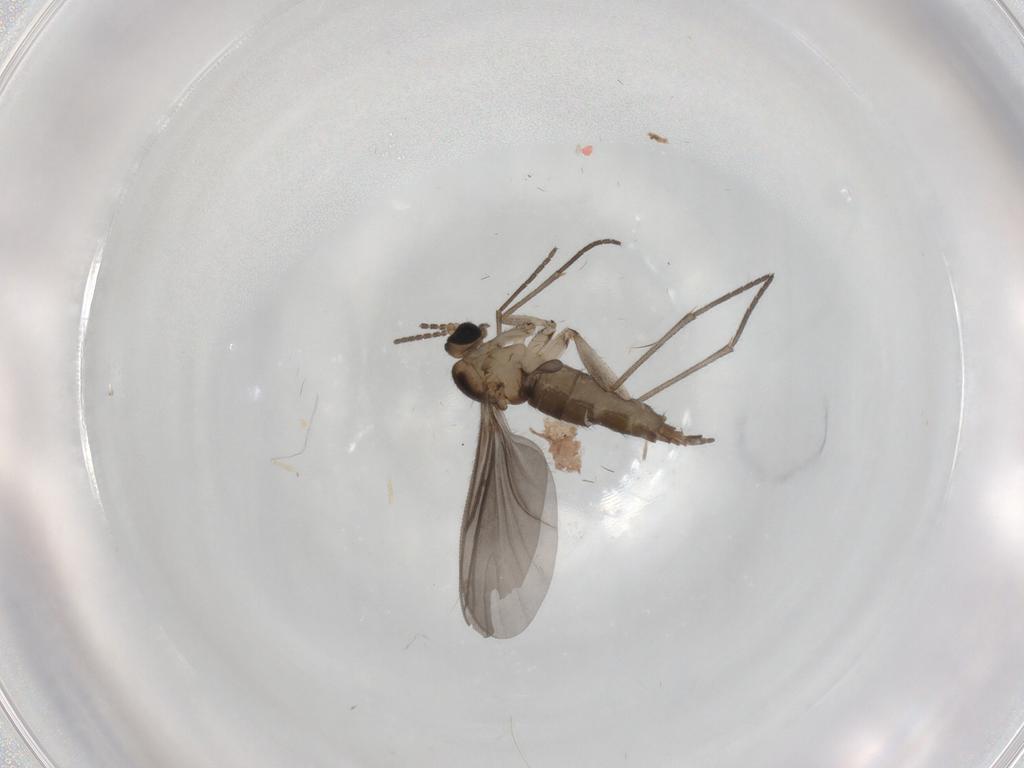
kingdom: Animalia
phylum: Arthropoda
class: Insecta
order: Diptera
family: Sciaridae
